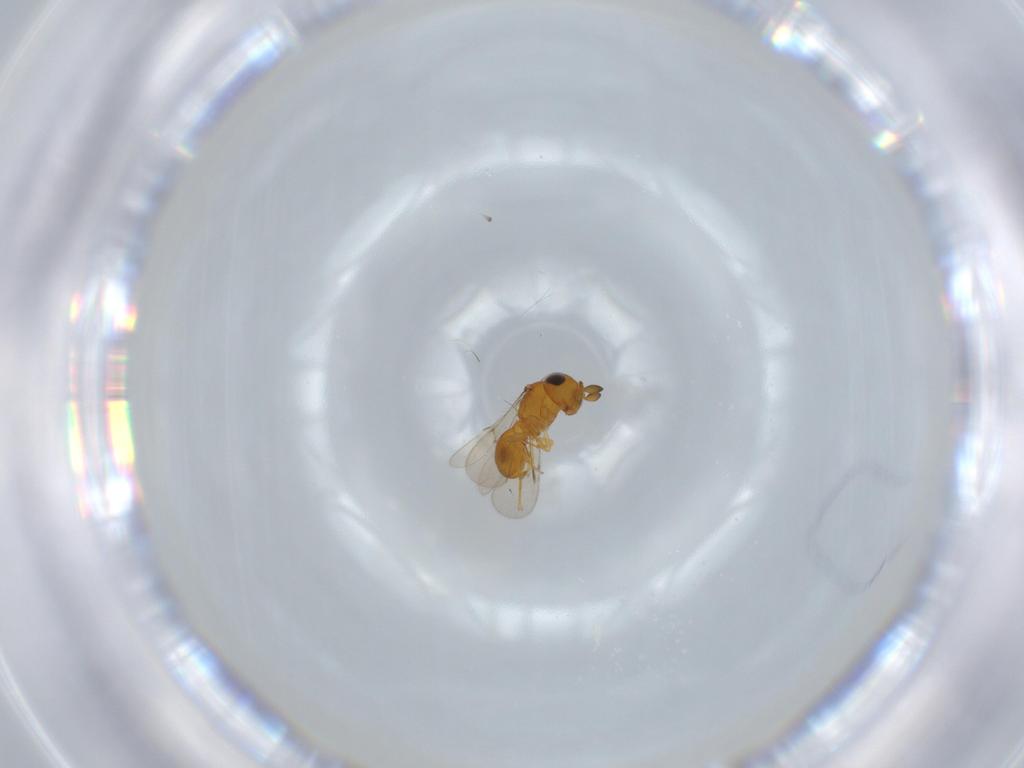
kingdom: Animalia
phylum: Arthropoda
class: Insecta
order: Hymenoptera
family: Scelionidae
